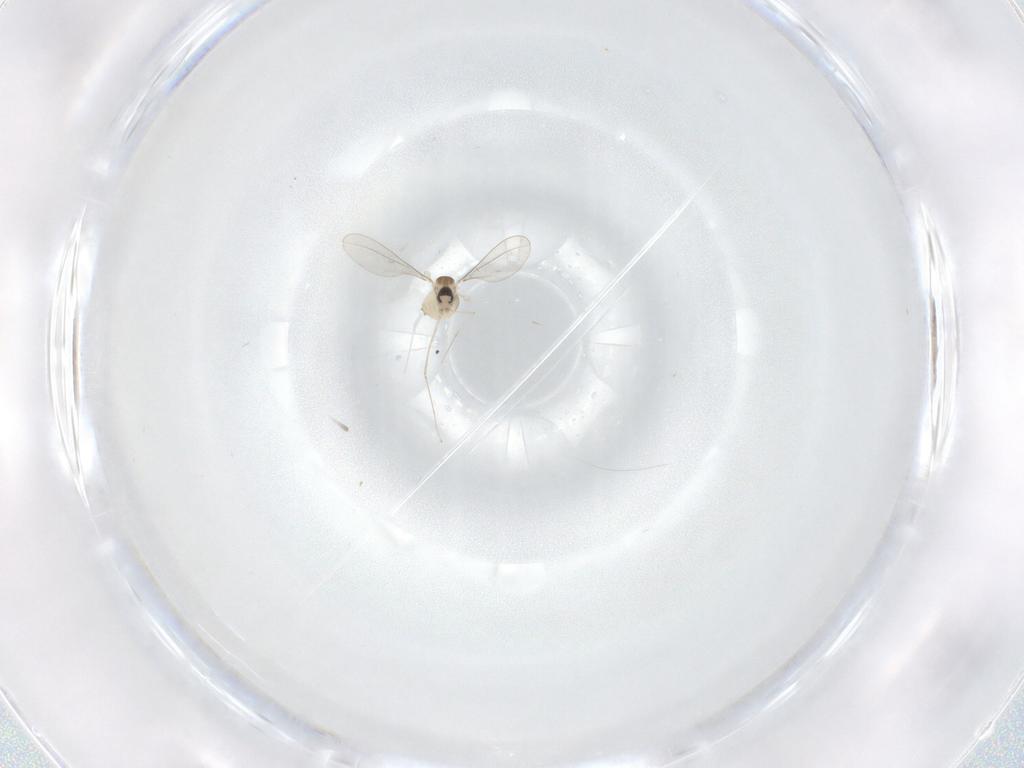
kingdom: Animalia
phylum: Arthropoda
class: Insecta
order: Diptera
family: Cecidomyiidae
